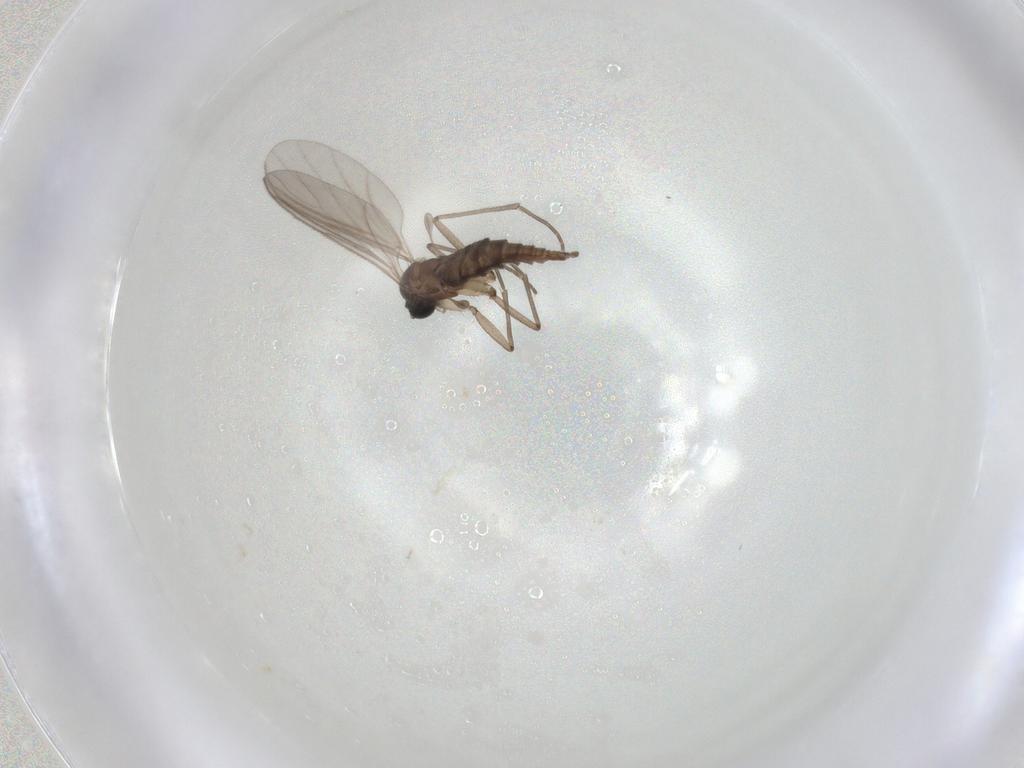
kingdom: Animalia
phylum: Arthropoda
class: Insecta
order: Diptera
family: Sciaridae
